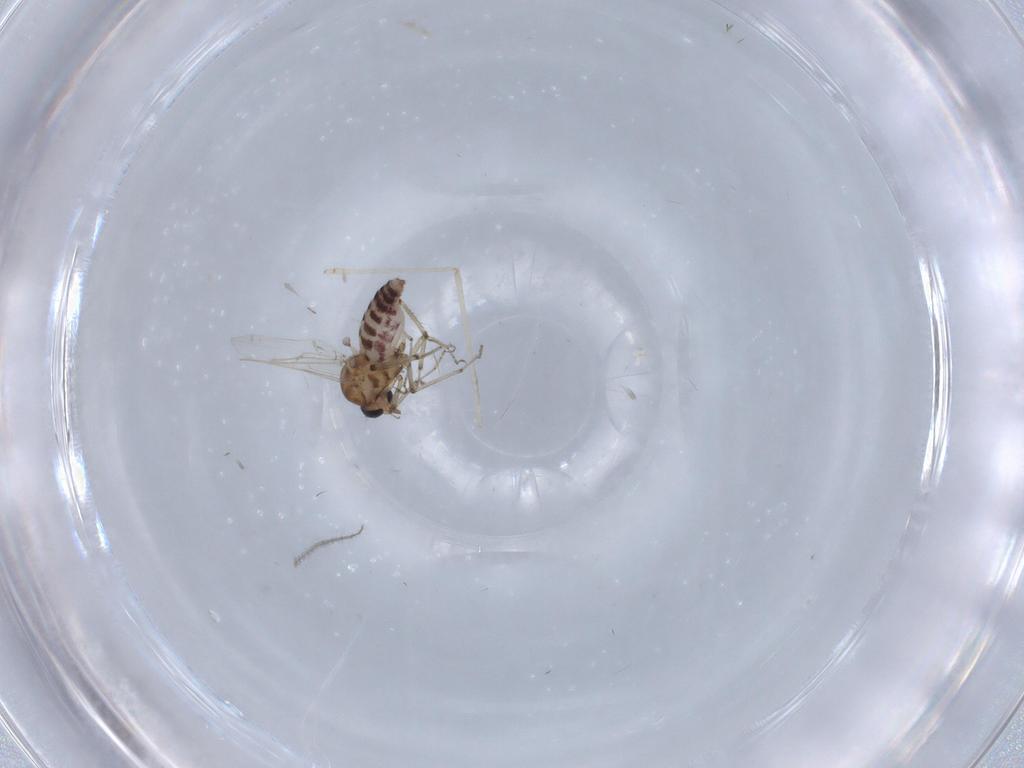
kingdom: Animalia
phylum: Arthropoda
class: Insecta
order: Diptera
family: Ceratopogonidae
